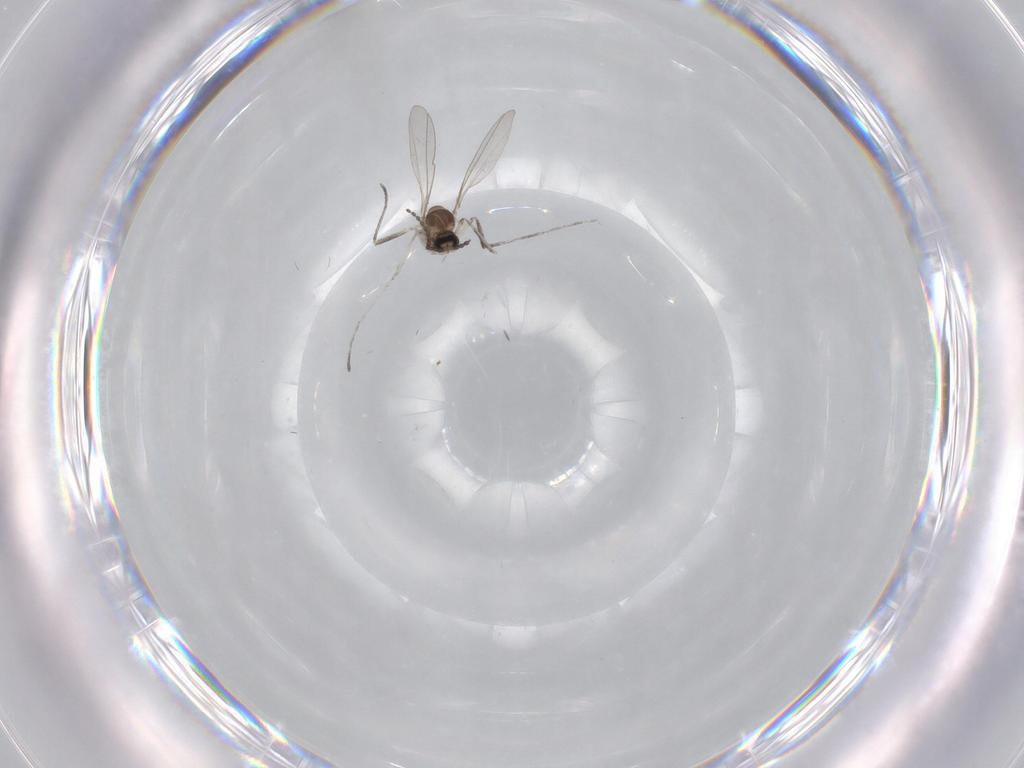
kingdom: Animalia
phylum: Arthropoda
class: Insecta
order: Diptera
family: Cecidomyiidae
